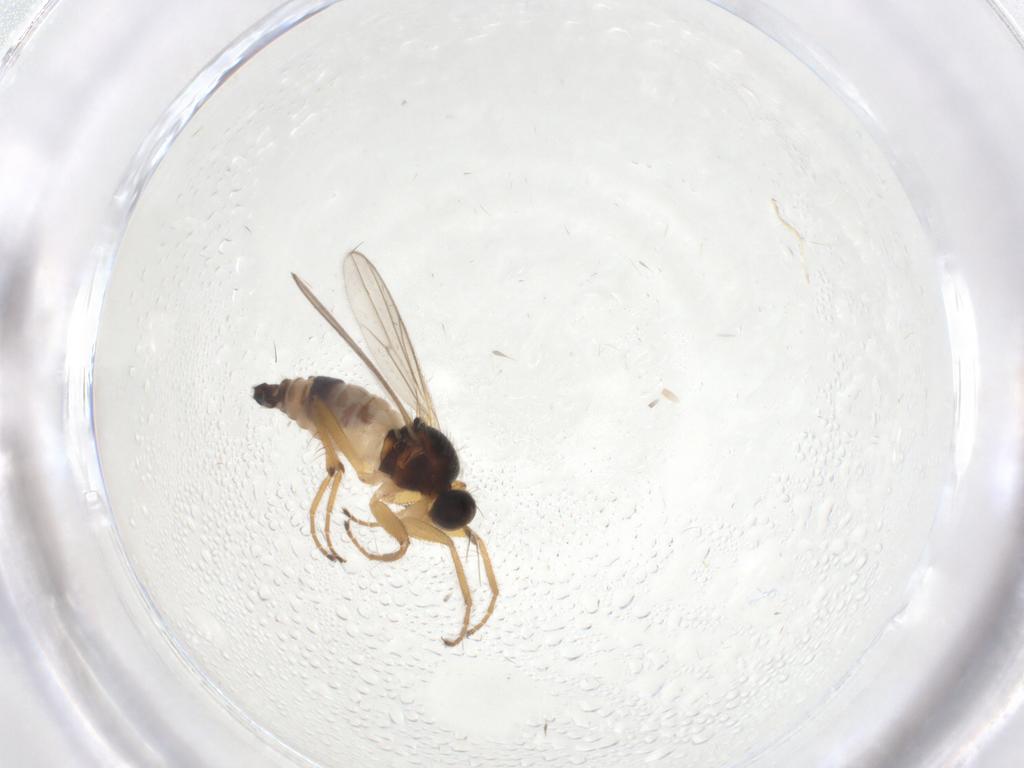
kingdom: Animalia
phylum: Arthropoda
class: Insecta
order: Diptera
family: Hybotidae
